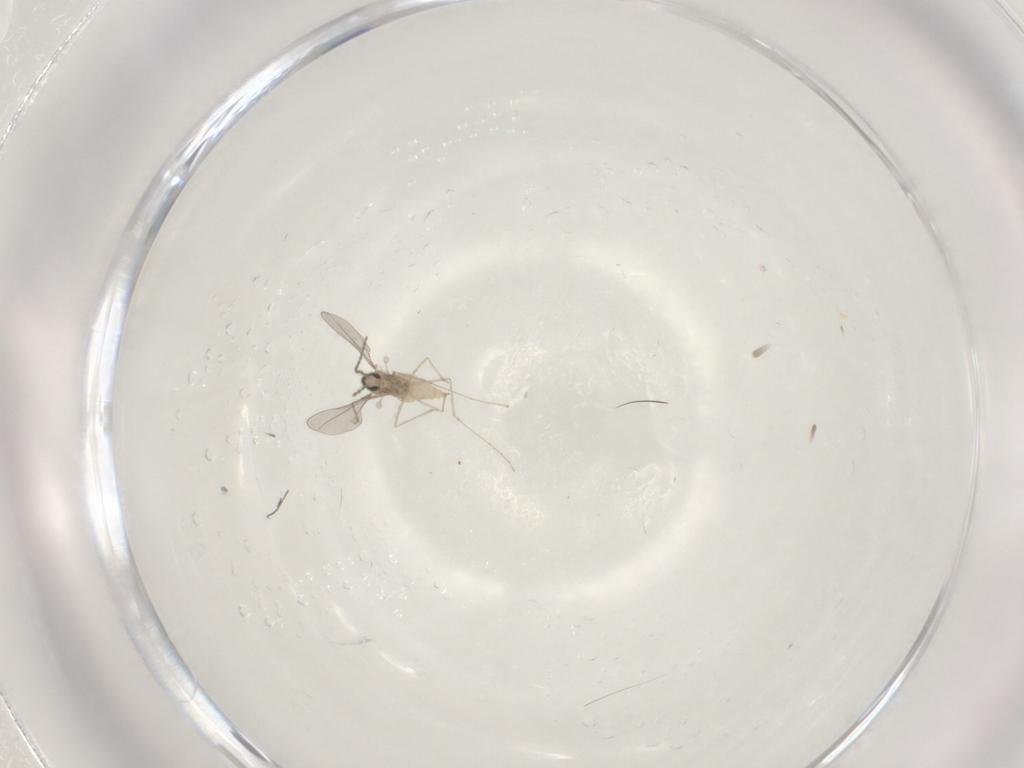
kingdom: Animalia
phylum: Arthropoda
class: Insecta
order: Diptera
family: Cecidomyiidae
